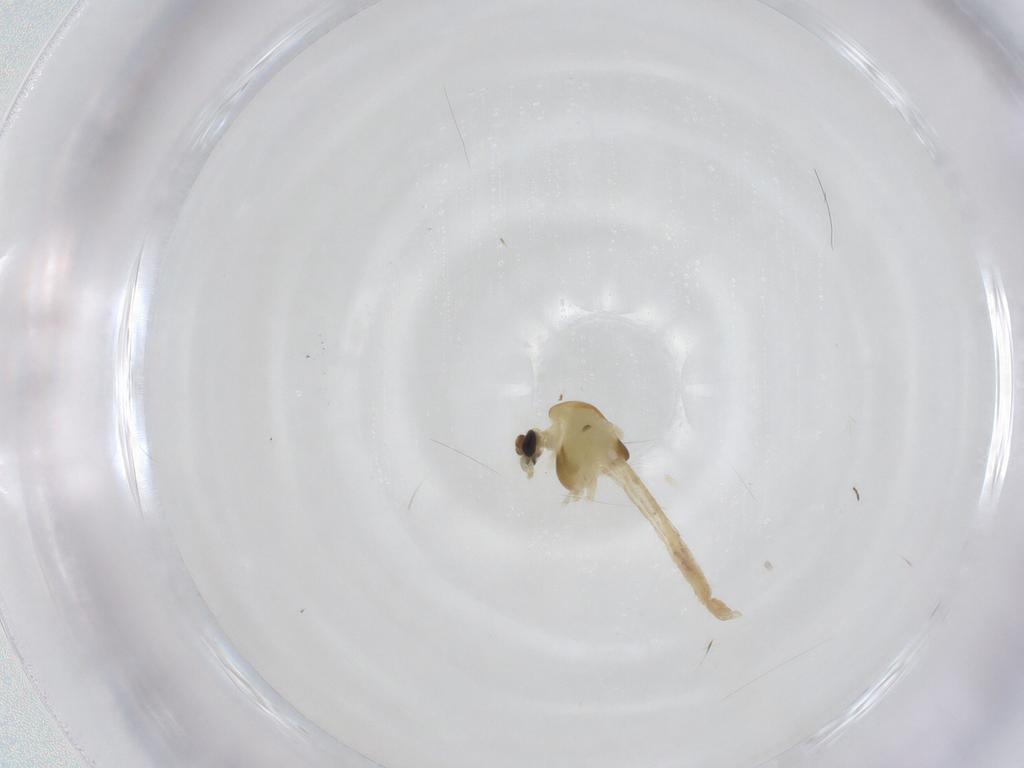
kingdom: Animalia
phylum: Arthropoda
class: Insecta
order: Diptera
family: Chironomidae
